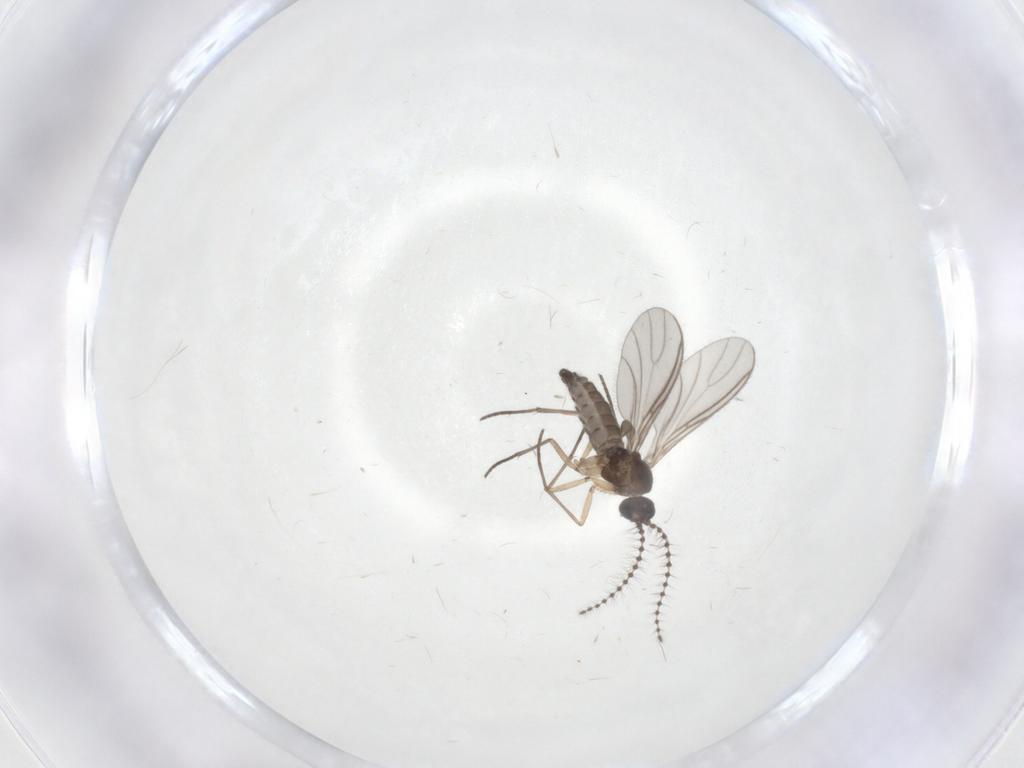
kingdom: Animalia
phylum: Arthropoda
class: Insecta
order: Diptera
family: Sciaridae
